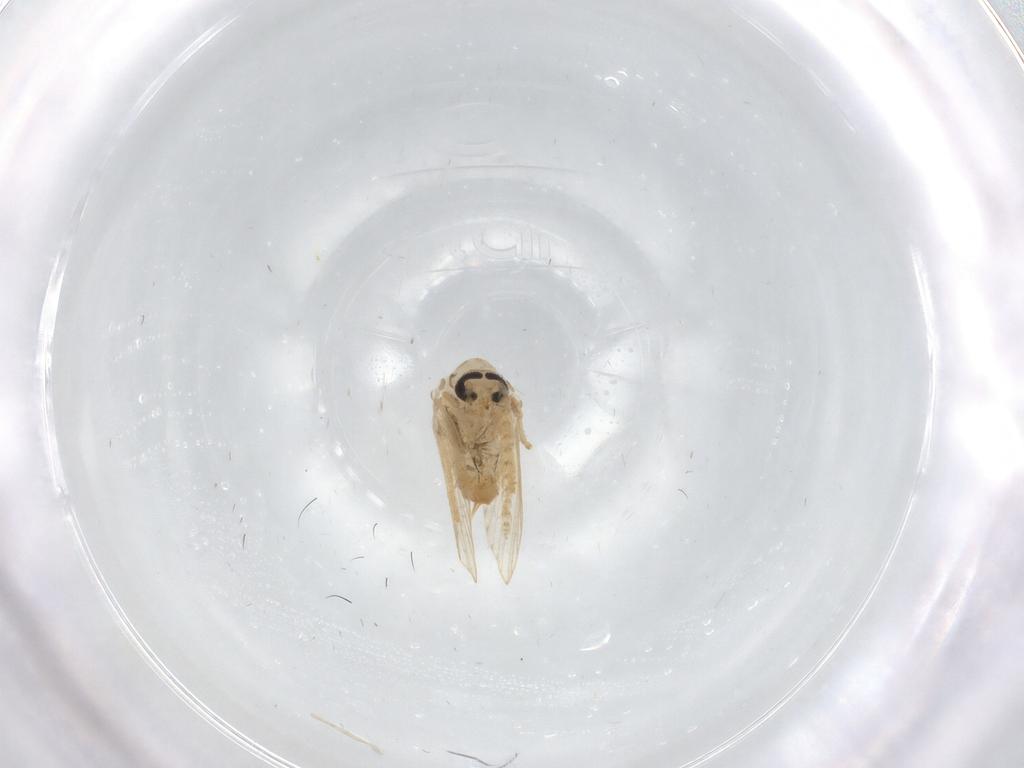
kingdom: Animalia
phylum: Arthropoda
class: Insecta
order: Diptera
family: Psychodidae
